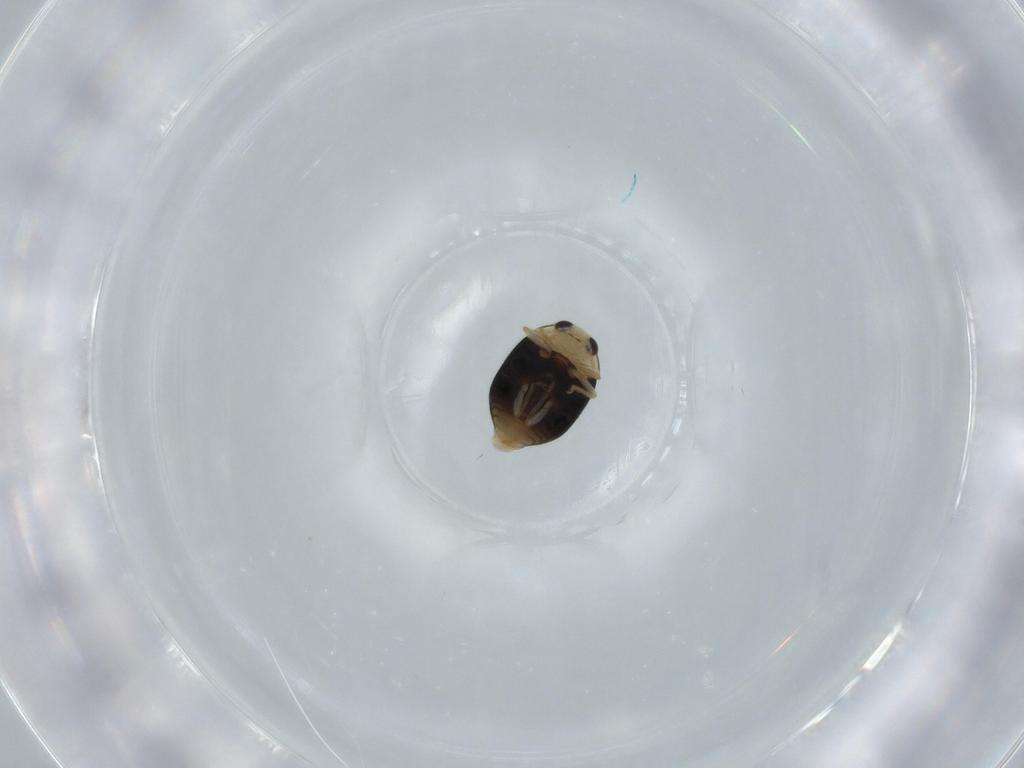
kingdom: Animalia
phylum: Arthropoda
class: Insecta
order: Coleoptera
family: Coccinellidae
